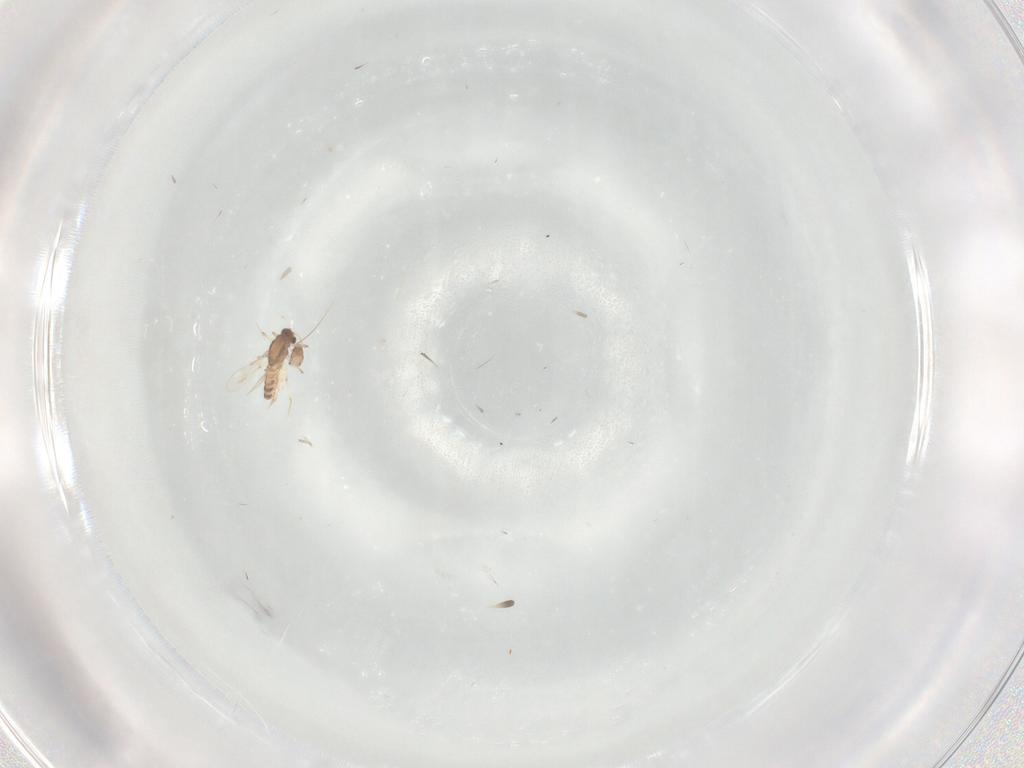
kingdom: Animalia
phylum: Arthropoda
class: Insecta
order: Diptera
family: Chironomidae
